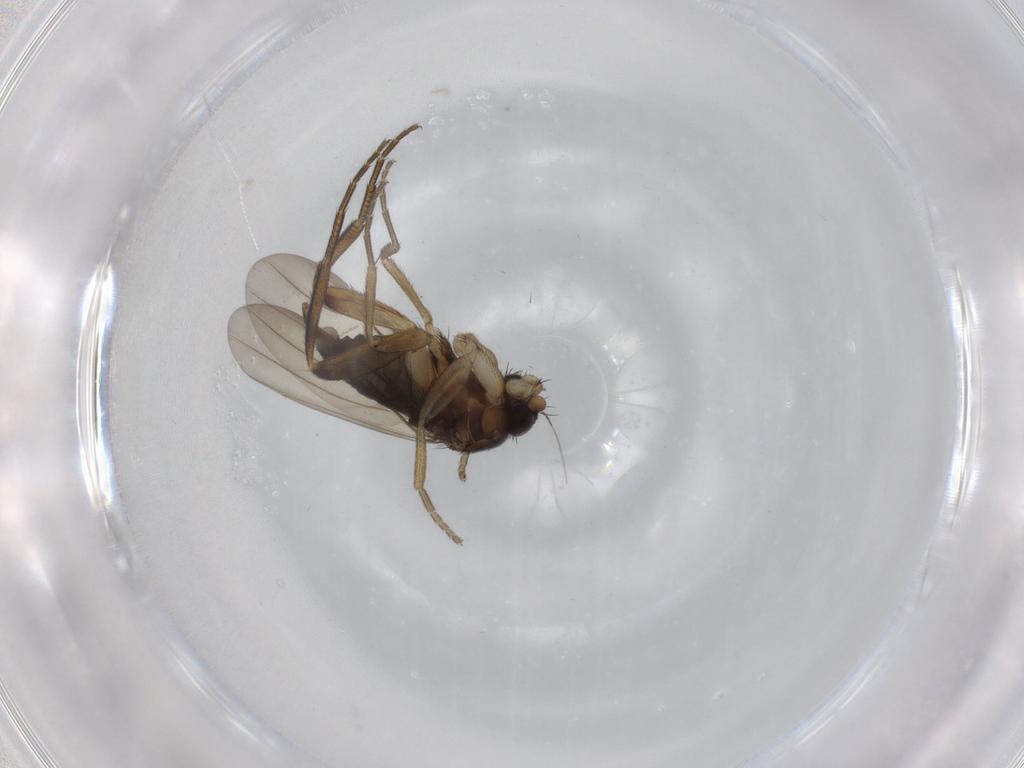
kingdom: Animalia
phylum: Arthropoda
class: Insecta
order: Diptera
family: Phoridae
